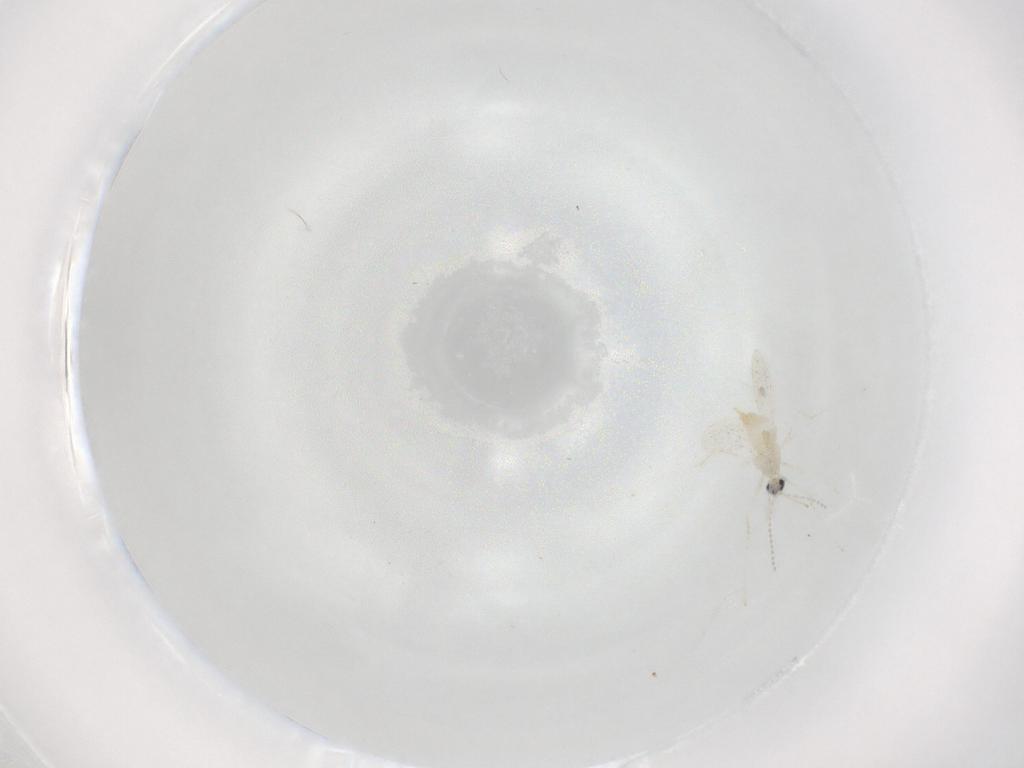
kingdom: Animalia
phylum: Arthropoda
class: Insecta
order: Diptera
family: Cecidomyiidae
